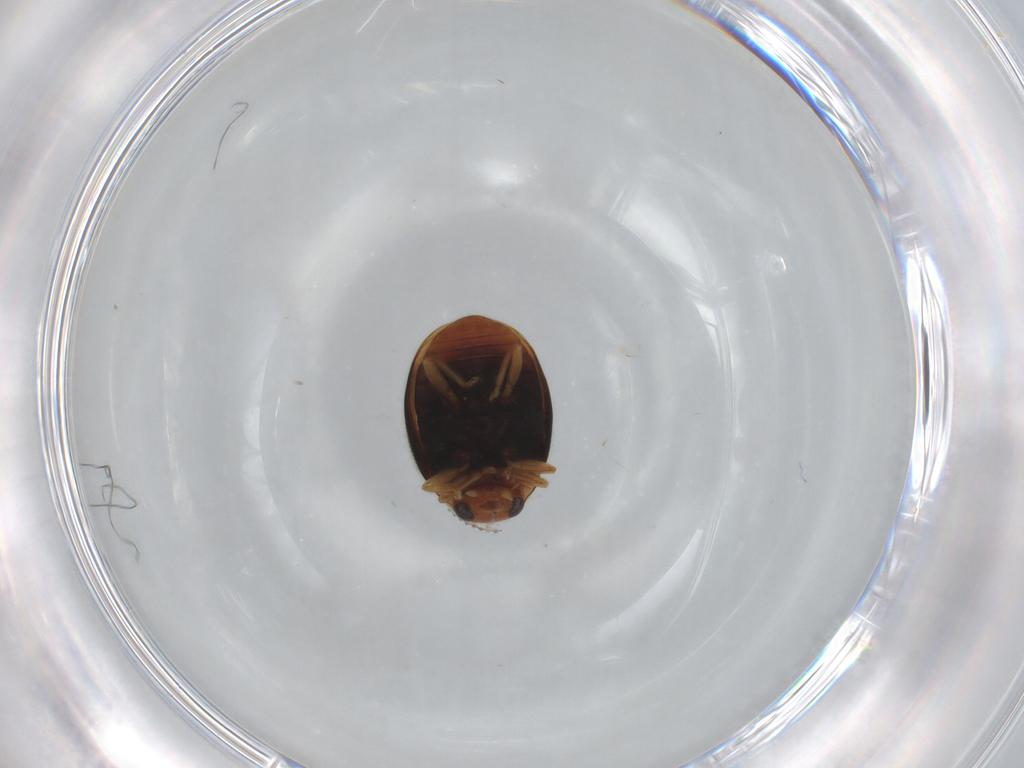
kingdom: Animalia
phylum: Arthropoda
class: Insecta
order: Coleoptera
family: Coccinellidae
